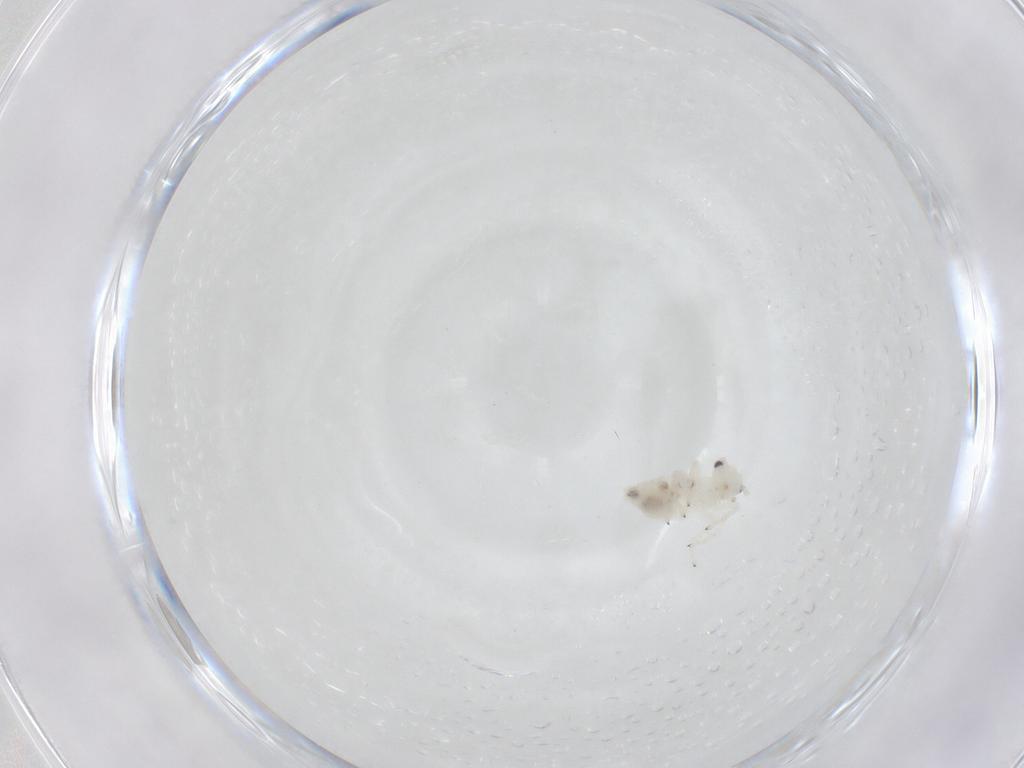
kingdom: Animalia
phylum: Arthropoda
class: Insecta
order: Psocodea
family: Caeciliusidae
